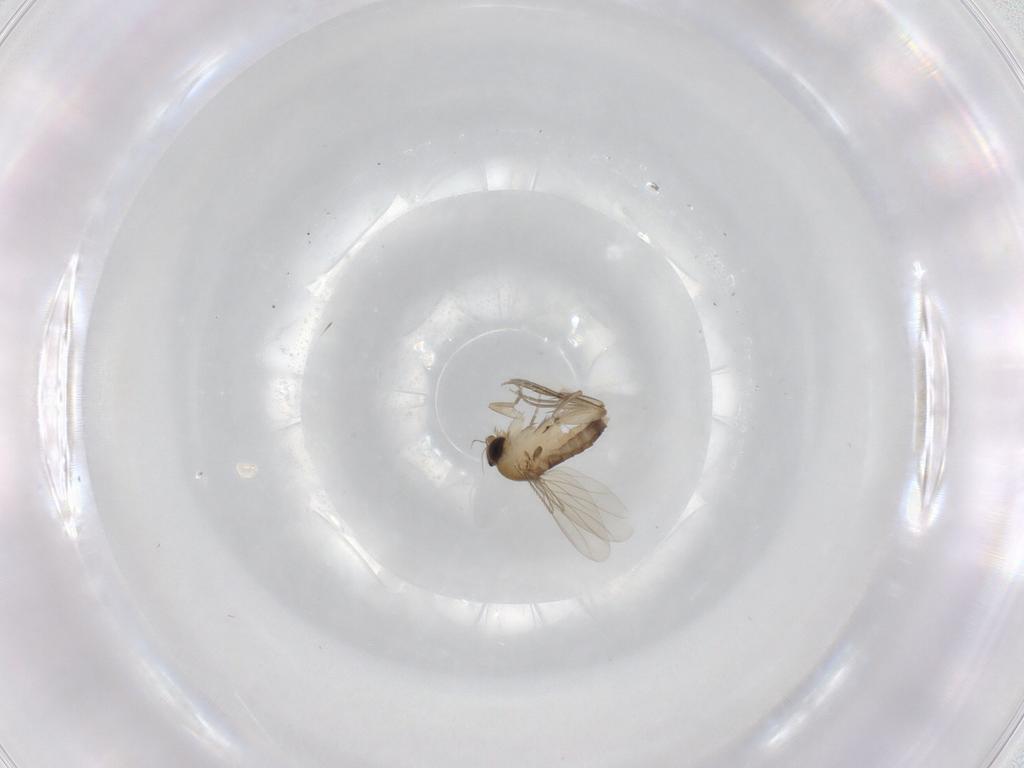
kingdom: Animalia
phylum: Arthropoda
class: Insecta
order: Diptera
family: Phoridae
